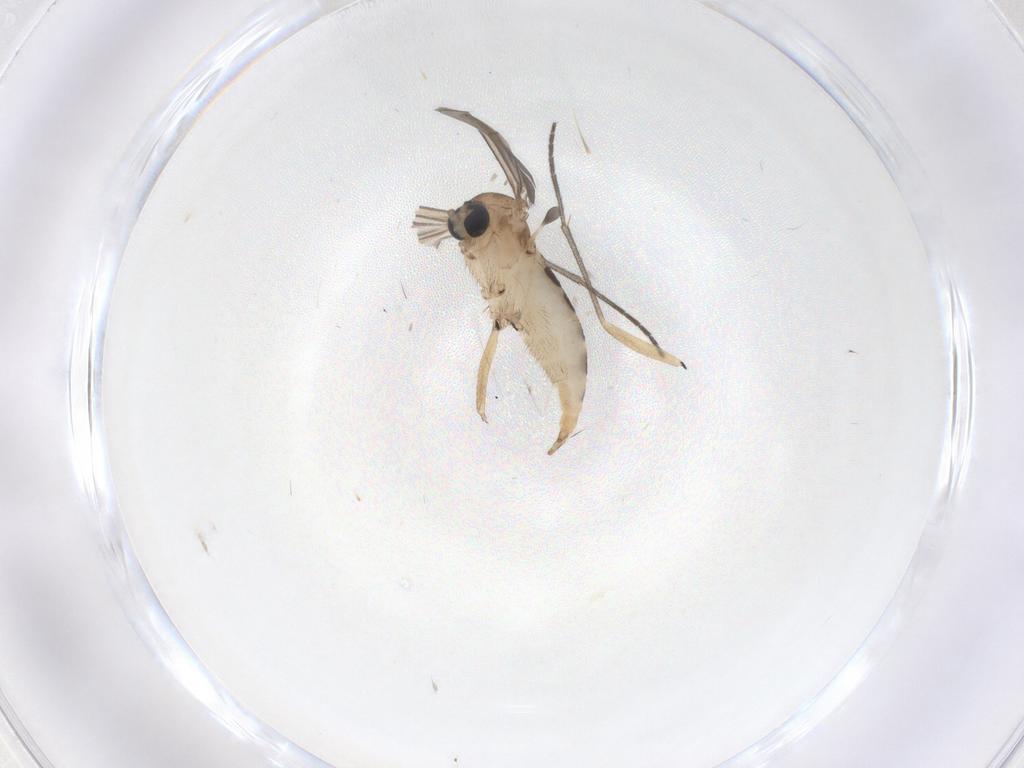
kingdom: Animalia
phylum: Arthropoda
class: Insecta
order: Diptera
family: Sciaridae
